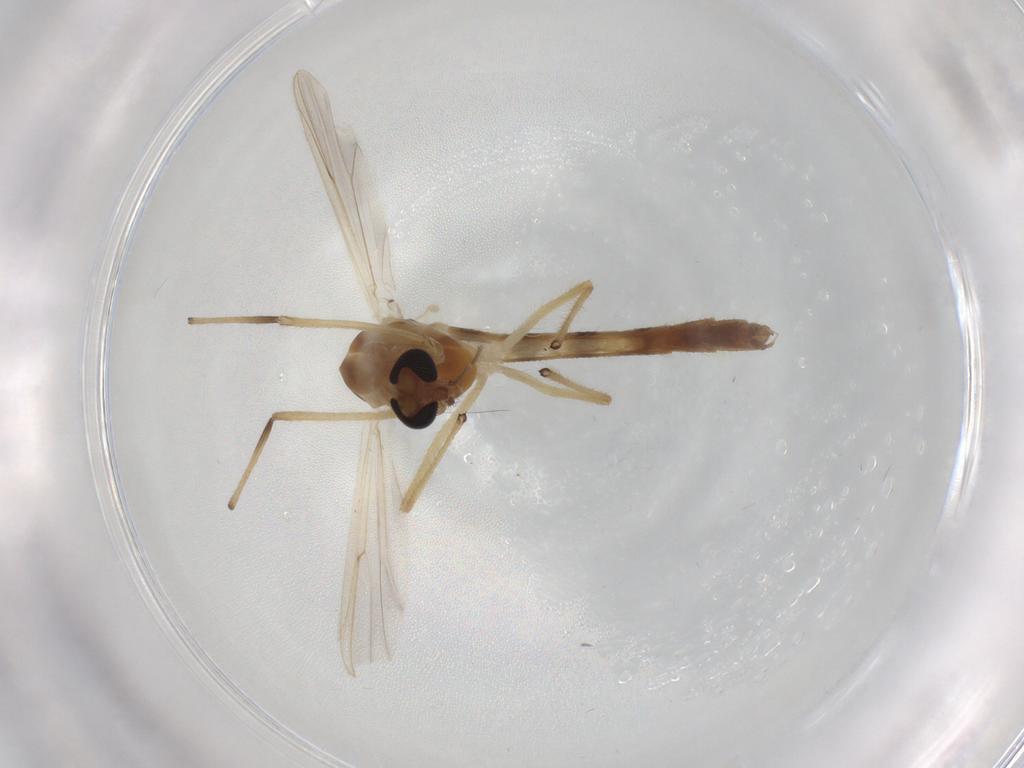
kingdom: Animalia
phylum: Arthropoda
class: Insecta
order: Diptera
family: Chironomidae
